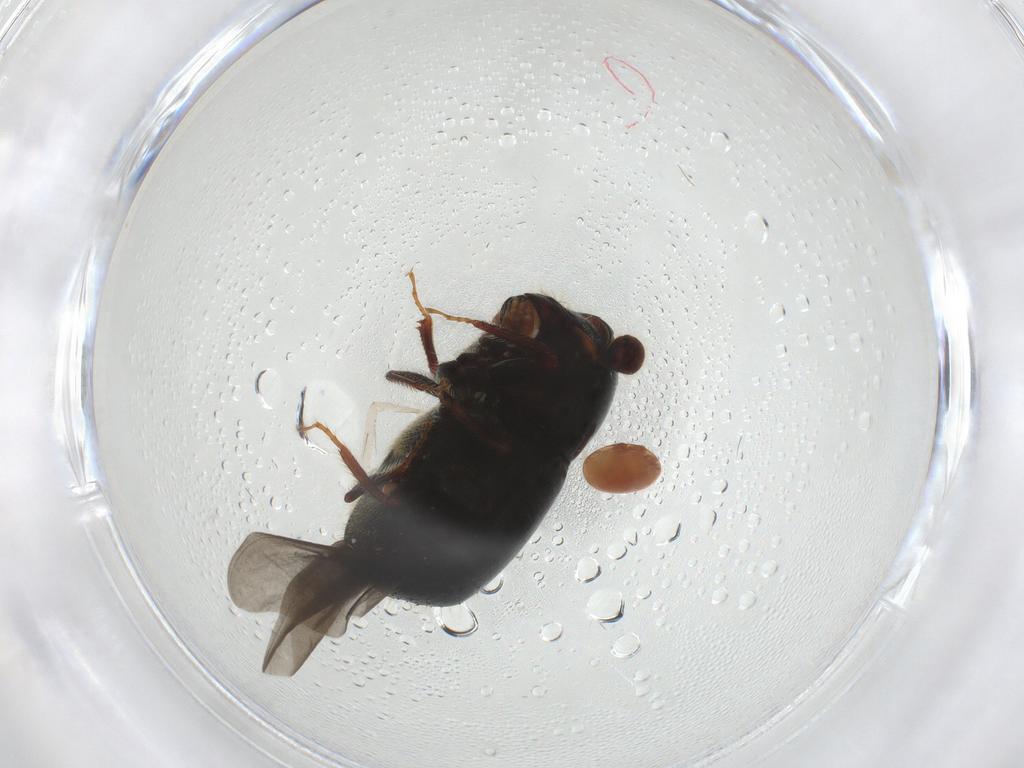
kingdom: Animalia
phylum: Arthropoda
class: Insecta
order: Coleoptera
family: Curculionidae
